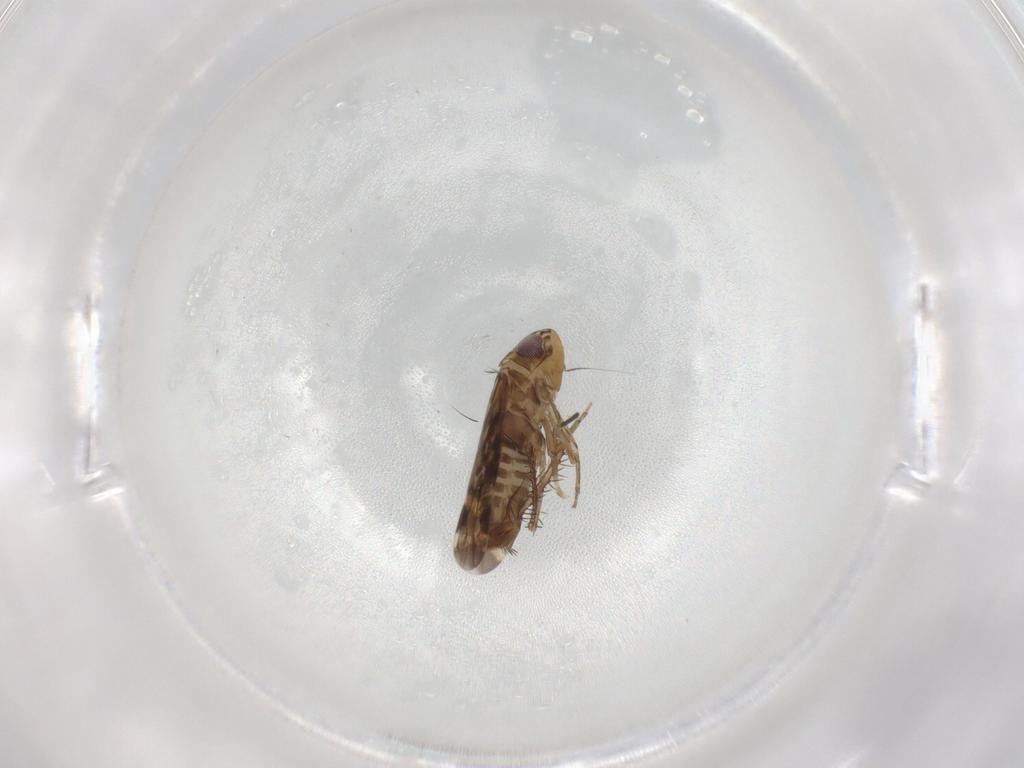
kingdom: Animalia
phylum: Arthropoda
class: Insecta
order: Hemiptera
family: Cicadellidae
